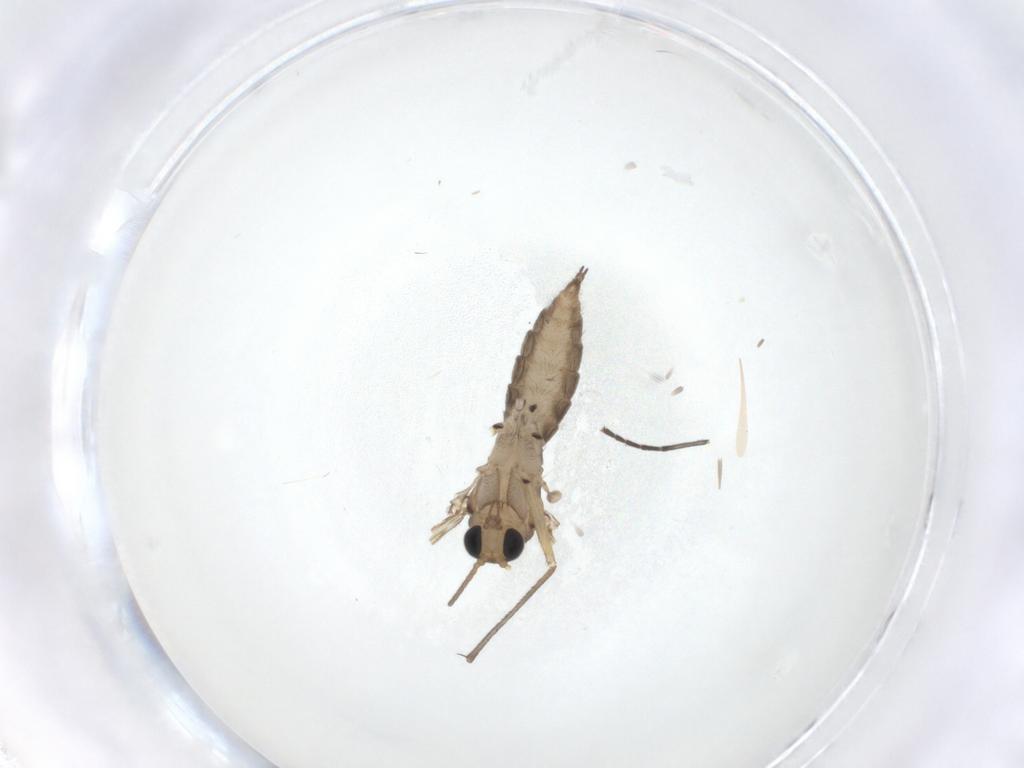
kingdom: Animalia
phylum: Arthropoda
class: Insecta
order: Diptera
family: Sciaridae
